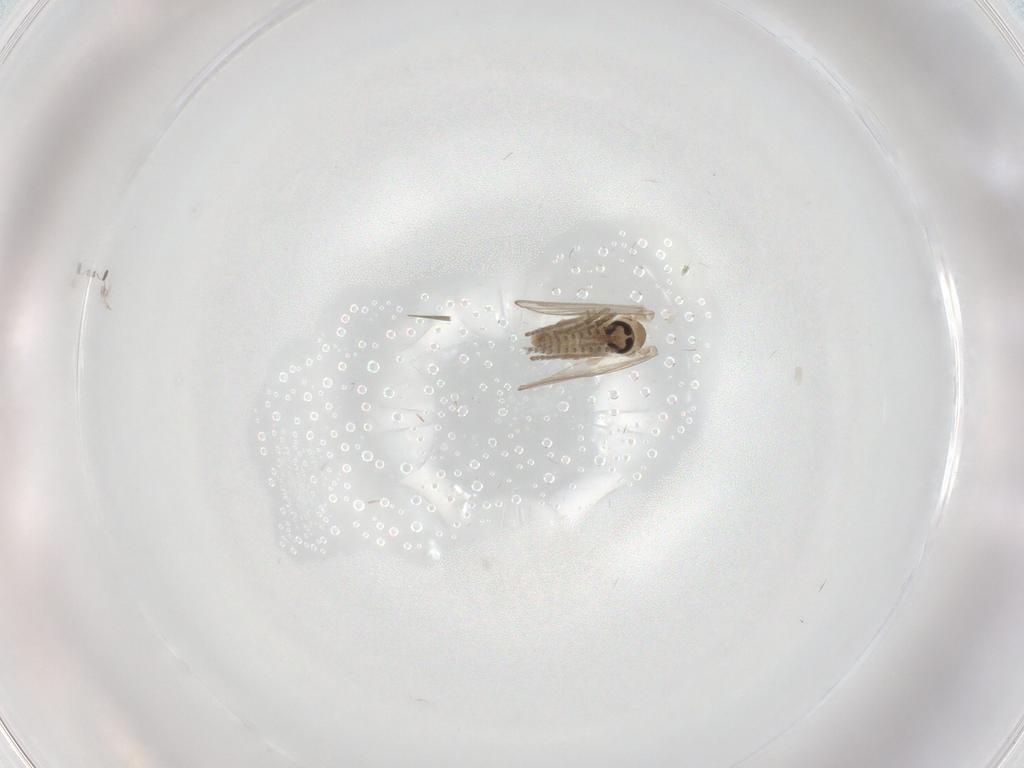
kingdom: Animalia
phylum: Arthropoda
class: Insecta
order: Diptera
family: Psychodidae
